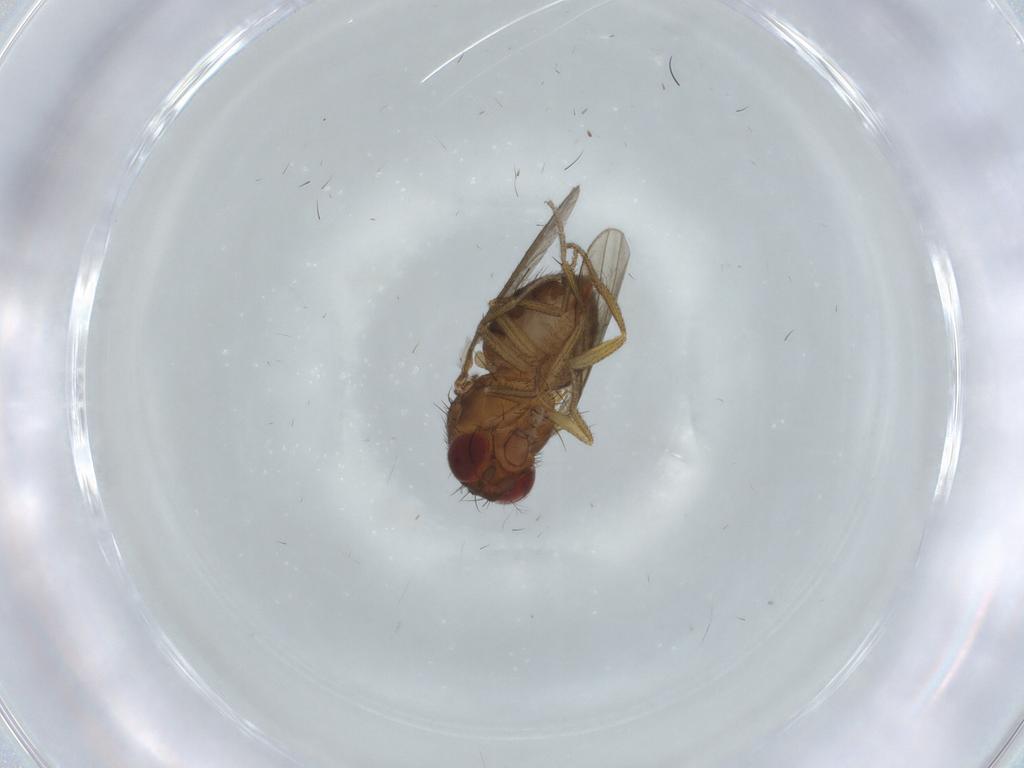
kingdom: Animalia
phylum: Arthropoda
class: Insecta
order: Diptera
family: Drosophilidae
